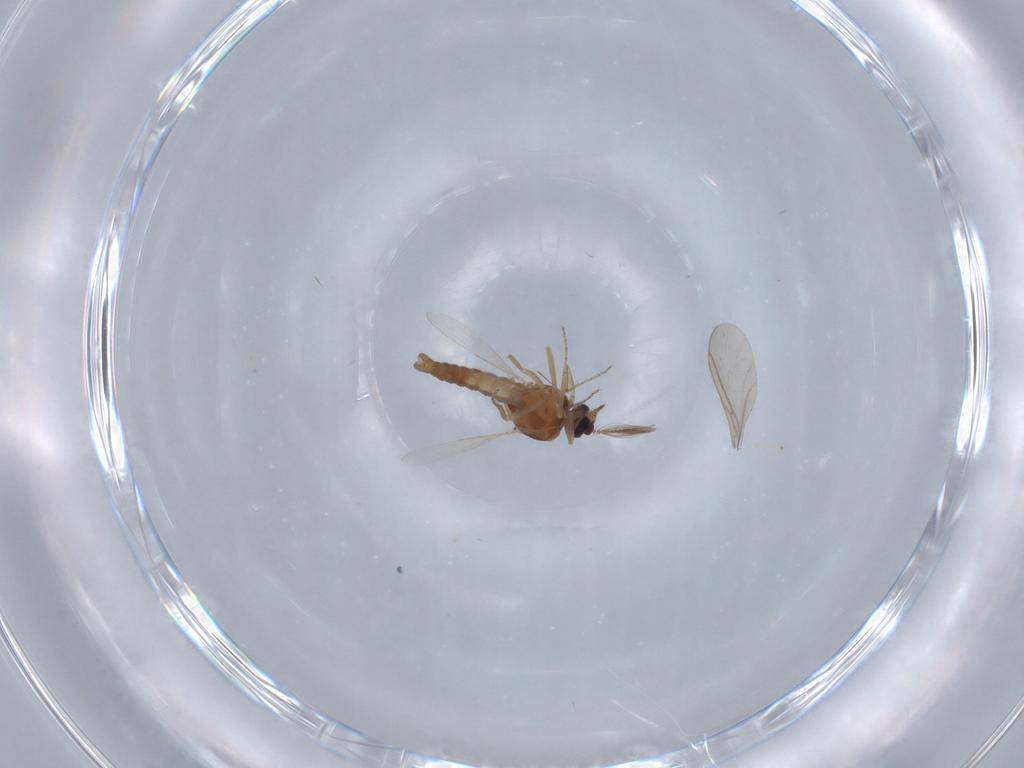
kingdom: Animalia
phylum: Arthropoda
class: Insecta
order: Diptera
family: Ceratopogonidae
